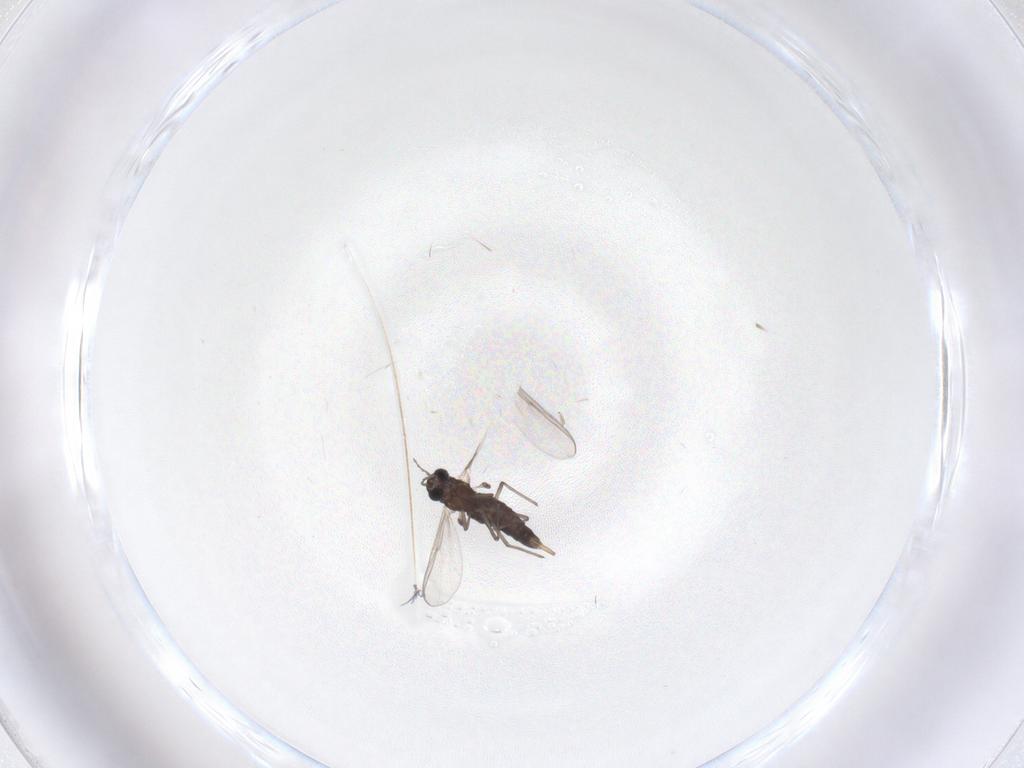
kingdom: Animalia
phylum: Arthropoda
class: Insecta
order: Diptera
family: Chironomidae
